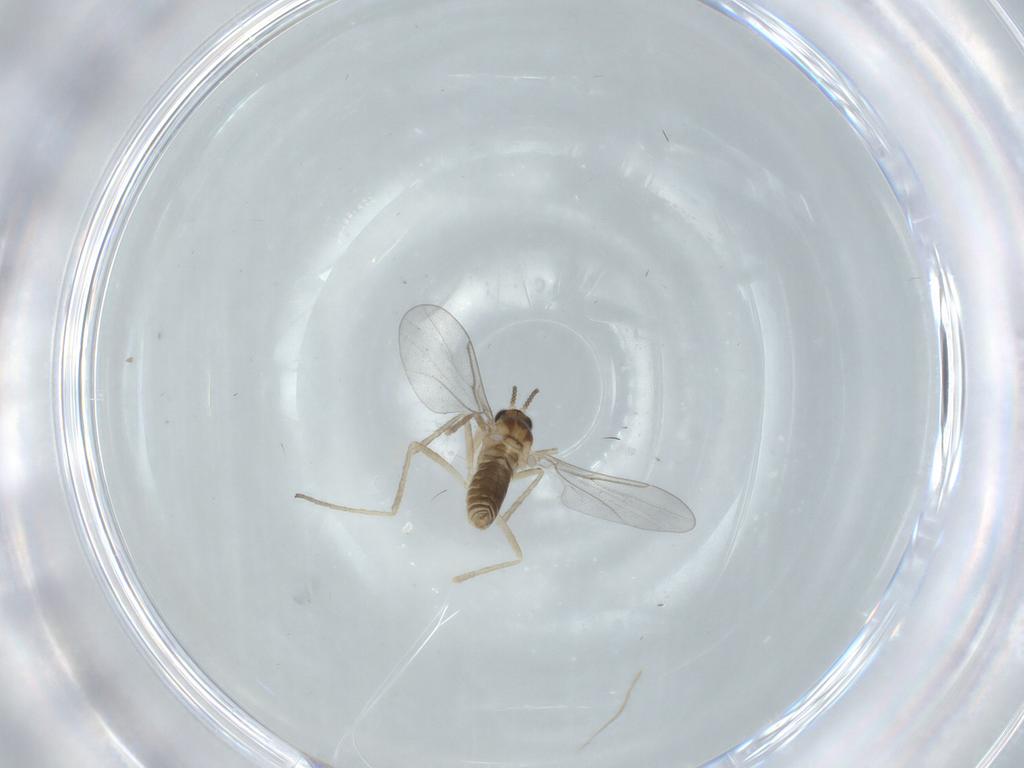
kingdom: Animalia
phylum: Arthropoda
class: Insecta
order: Diptera
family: Cecidomyiidae
